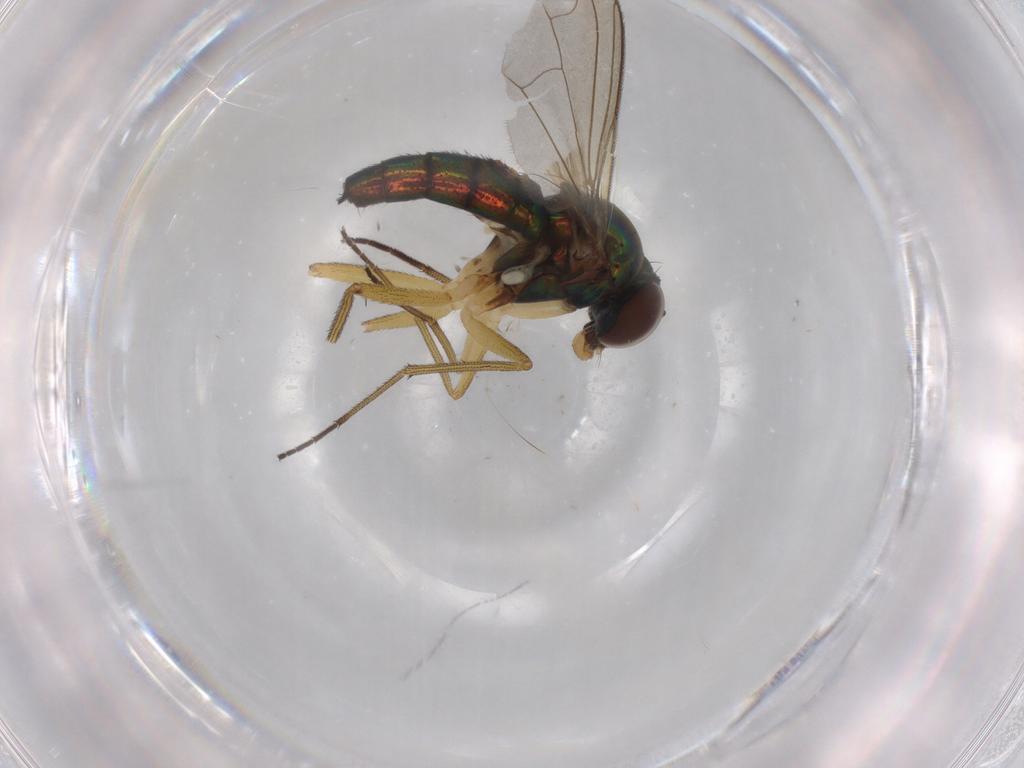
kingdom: Animalia
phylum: Arthropoda
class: Insecta
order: Diptera
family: Dolichopodidae
